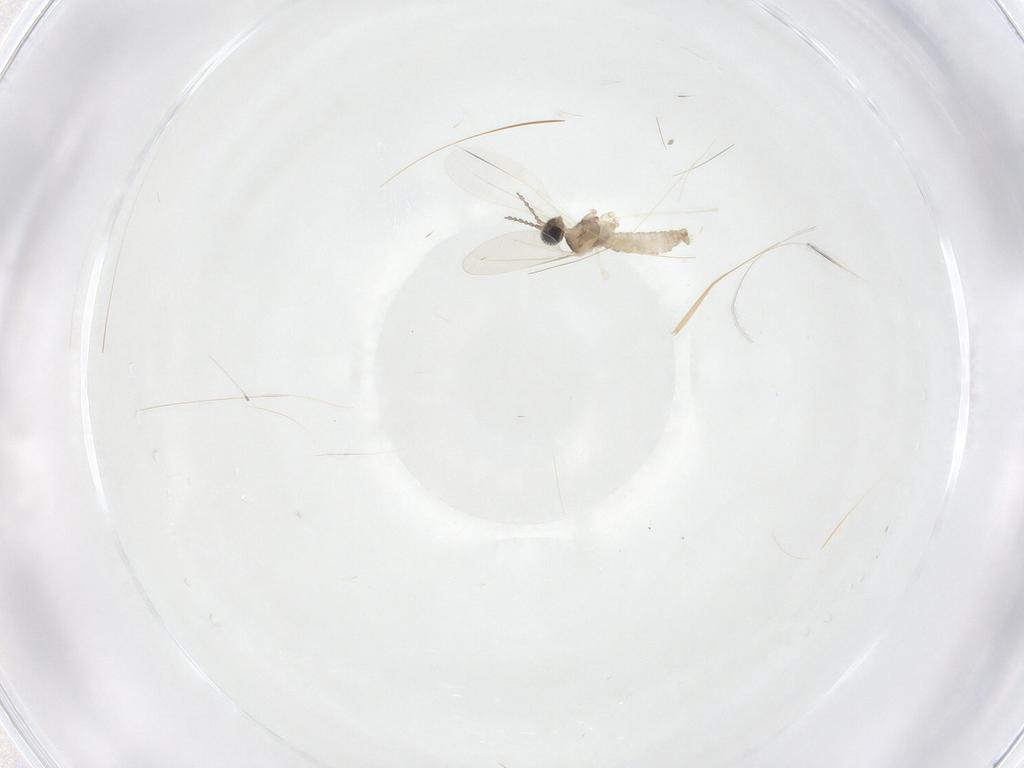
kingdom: Animalia
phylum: Arthropoda
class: Insecta
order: Diptera
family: Cecidomyiidae
